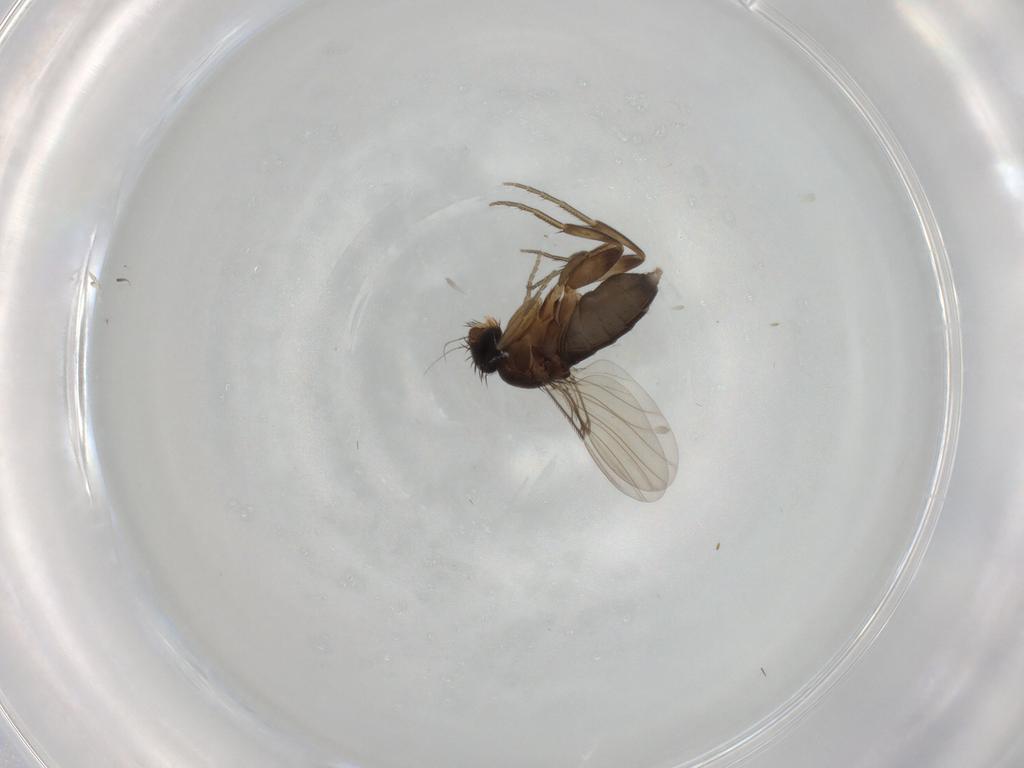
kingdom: Animalia
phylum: Arthropoda
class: Insecta
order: Diptera
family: Phoridae
